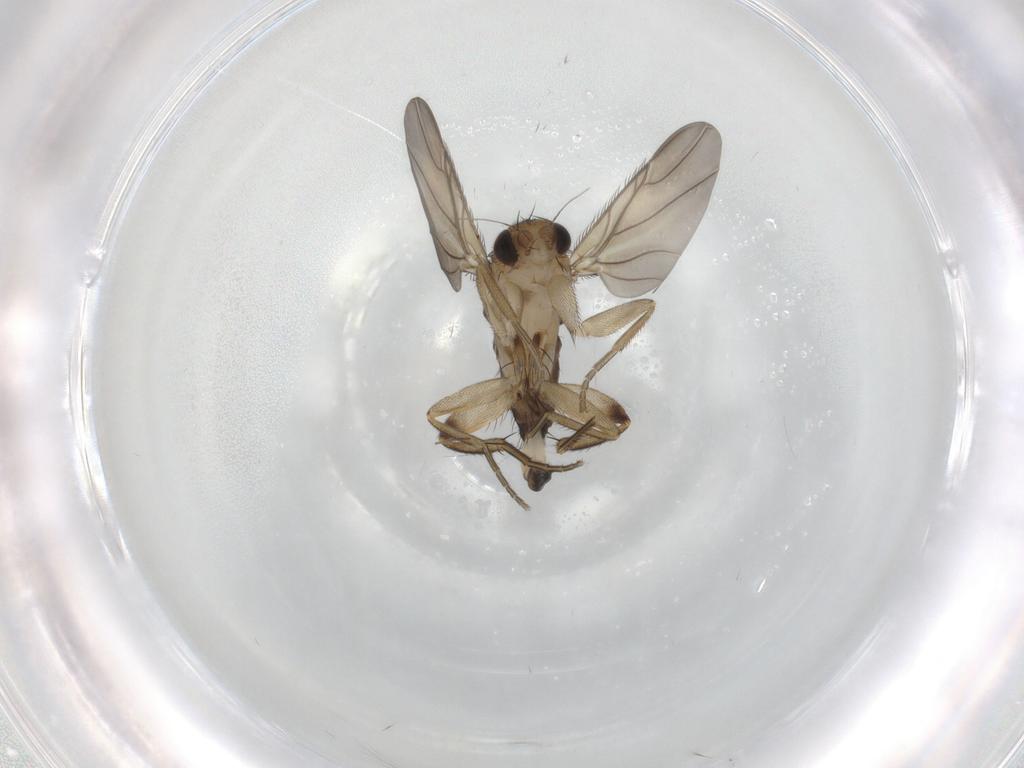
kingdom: Animalia
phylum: Arthropoda
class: Insecta
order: Diptera
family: Phoridae
